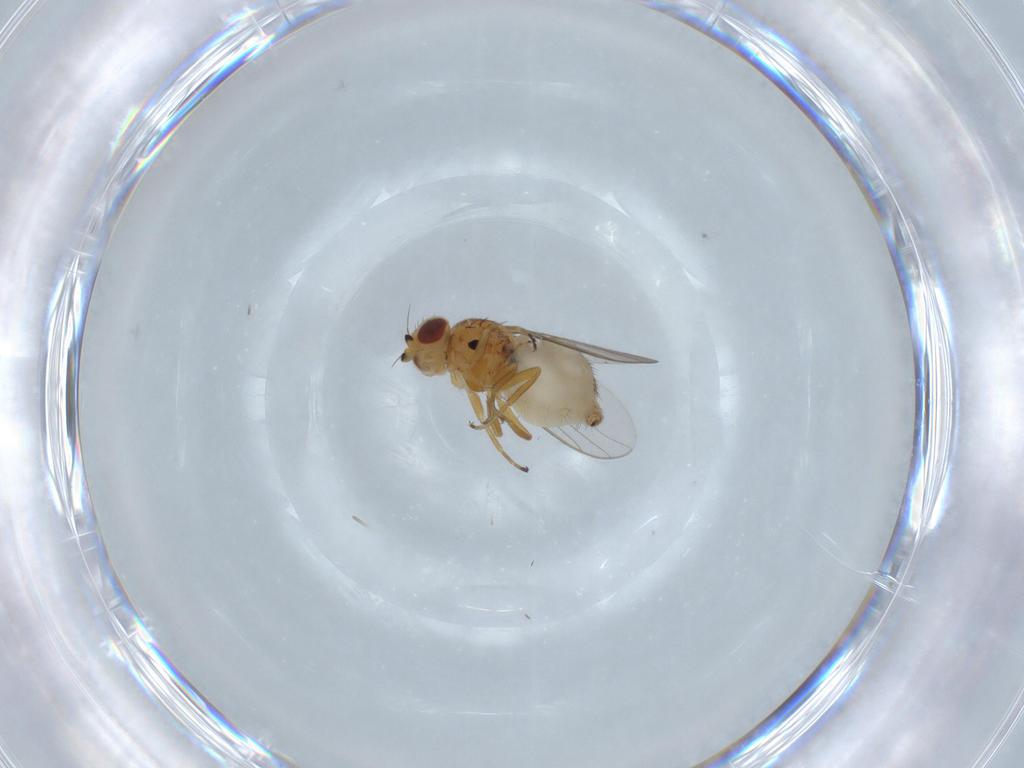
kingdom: Animalia
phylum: Arthropoda
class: Insecta
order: Diptera
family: Chloropidae
